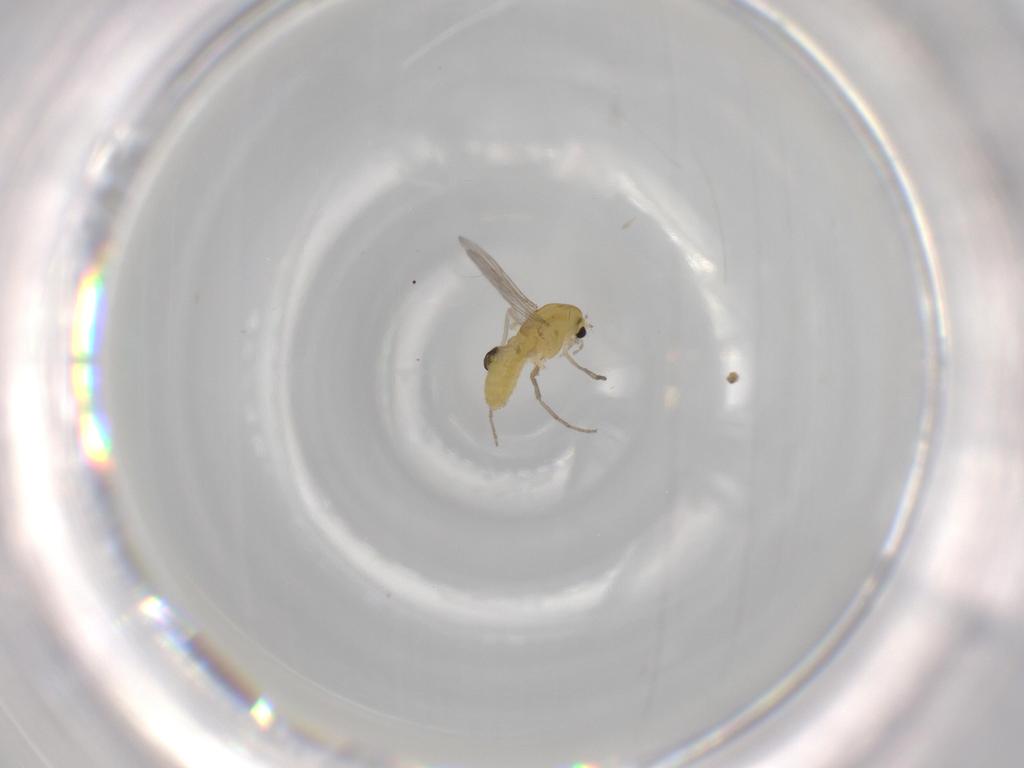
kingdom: Animalia
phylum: Arthropoda
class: Insecta
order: Diptera
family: Chironomidae
